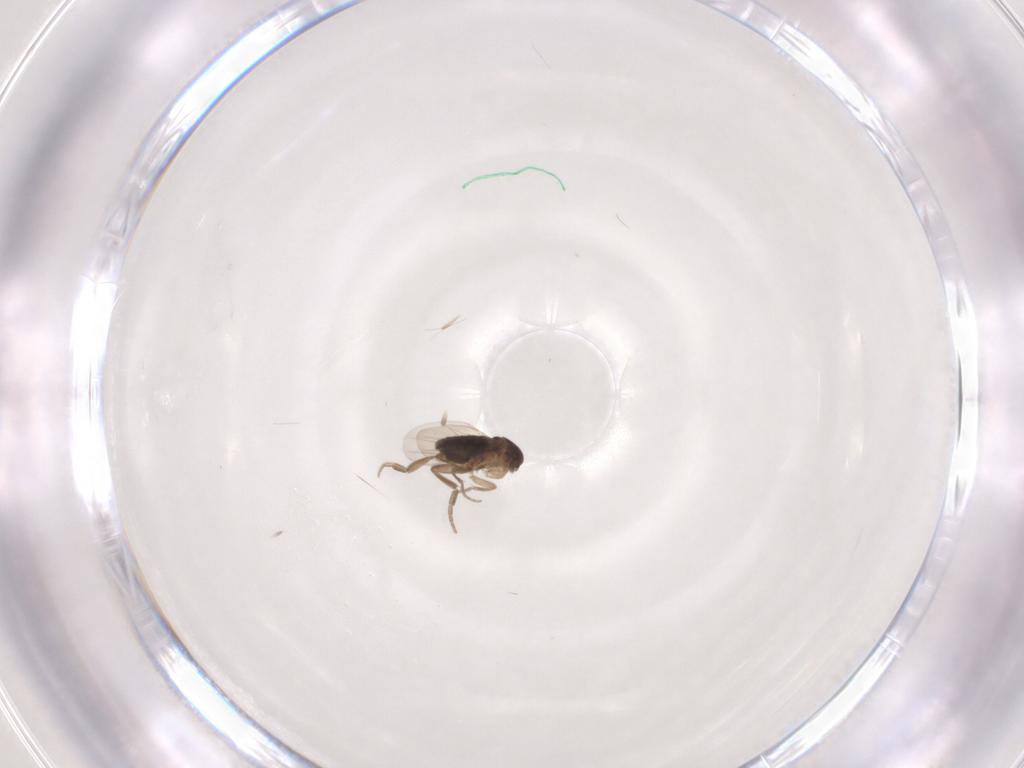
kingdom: Animalia
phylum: Arthropoda
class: Insecta
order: Diptera
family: Phoridae
